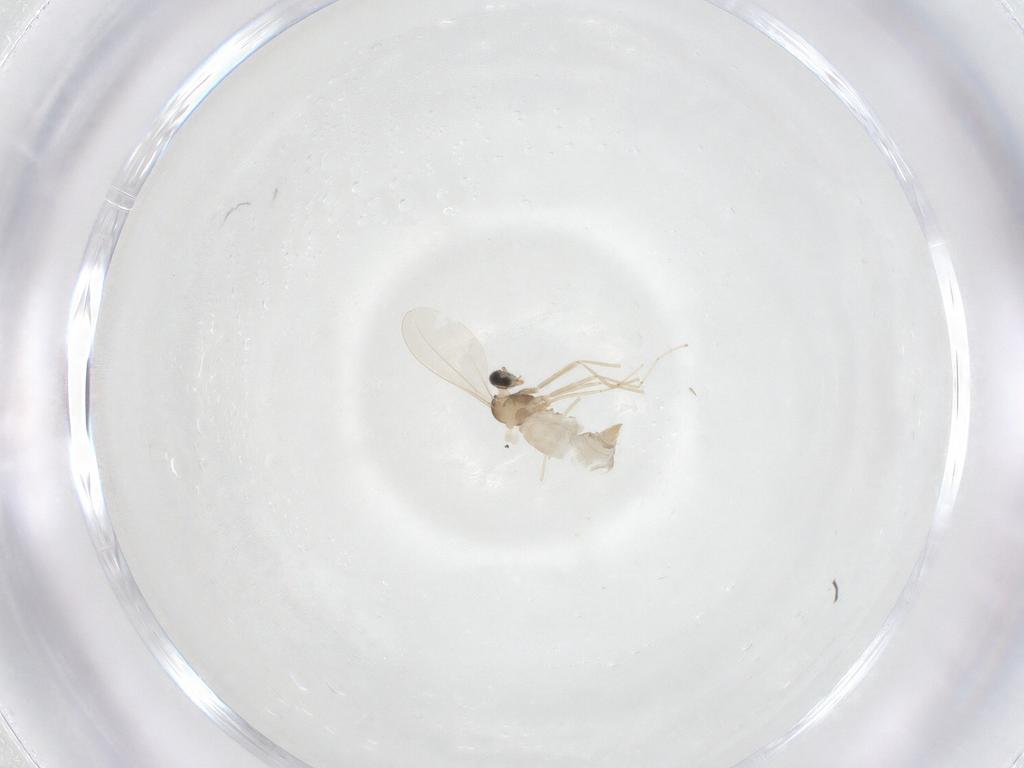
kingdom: Animalia
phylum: Arthropoda
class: Insecta
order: Diptera
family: Cecidomyiidae
